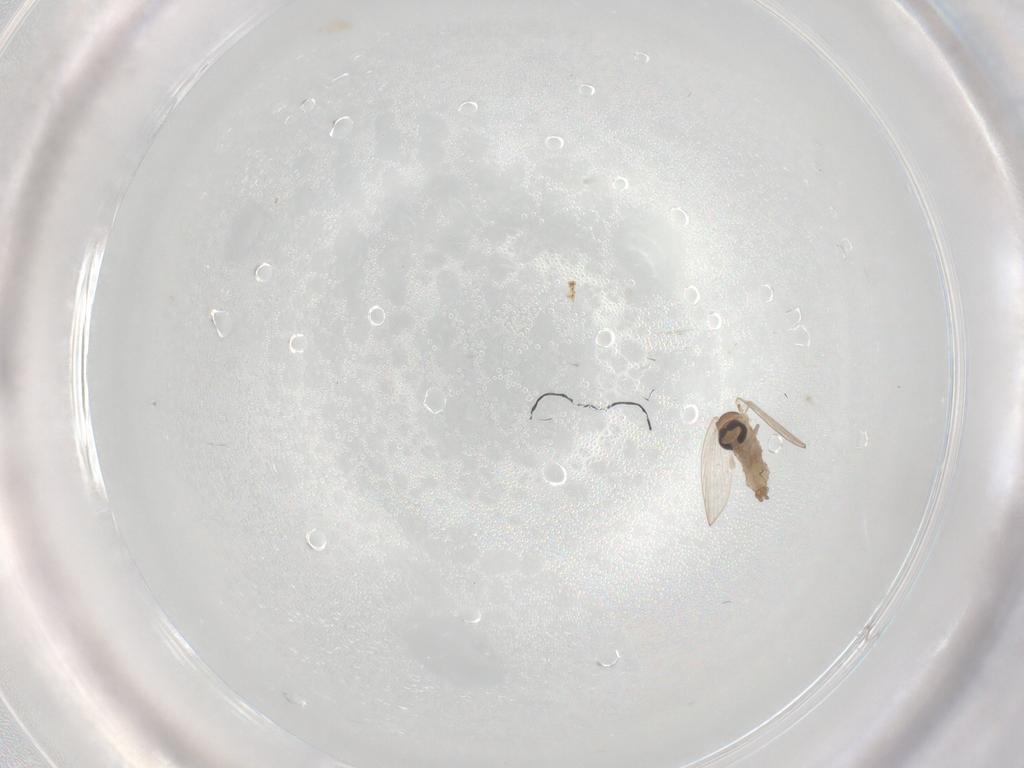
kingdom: Animalia
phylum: Arthropoda
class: Insecta
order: Diptera
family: Psychodidae
